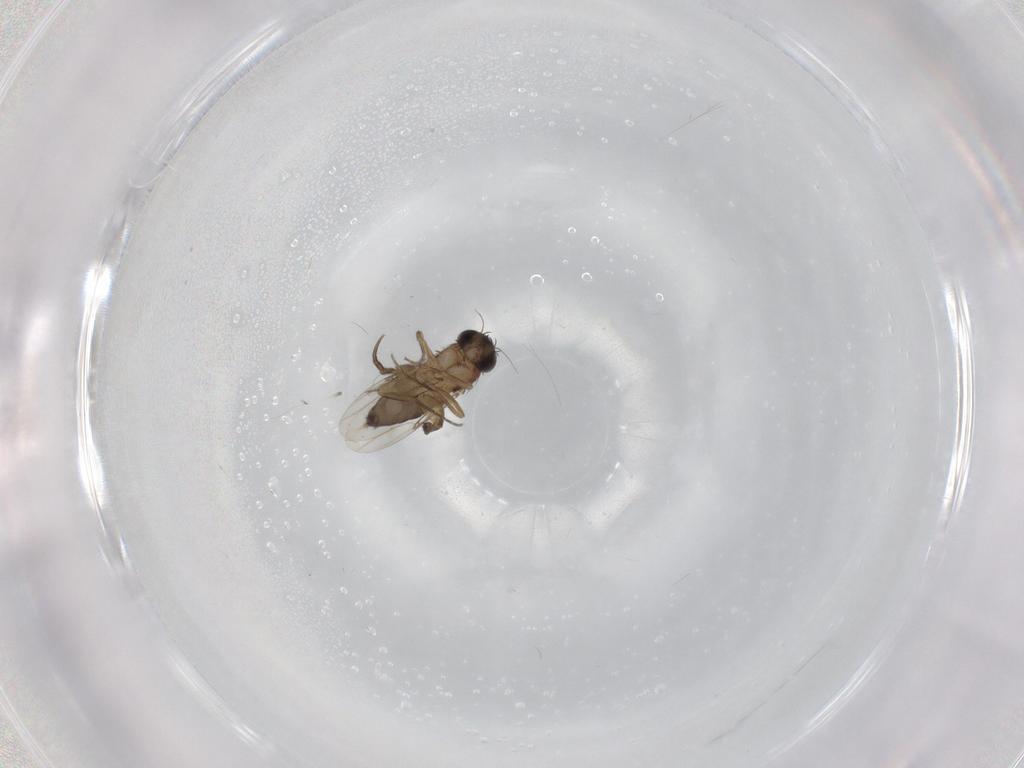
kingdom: Animalia
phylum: Arthropoda
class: Insecta
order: Diptera
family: Phoridae
